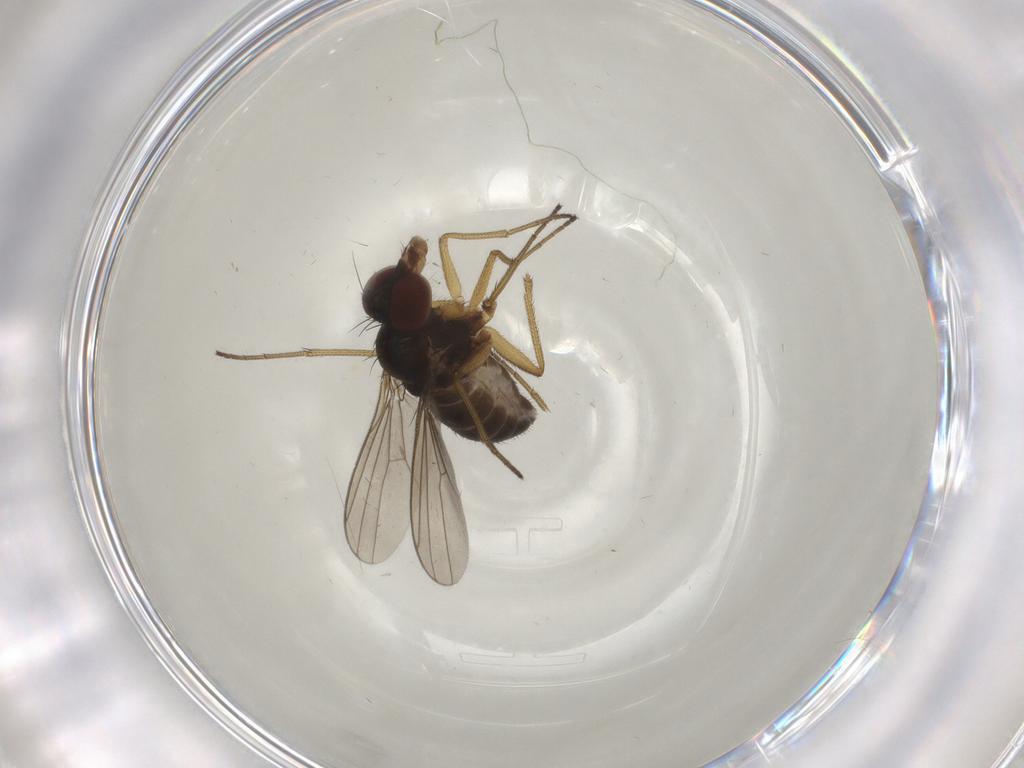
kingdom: Animalia
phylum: Arthropoda
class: Insecta
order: Diptera
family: Dolichopodidae
